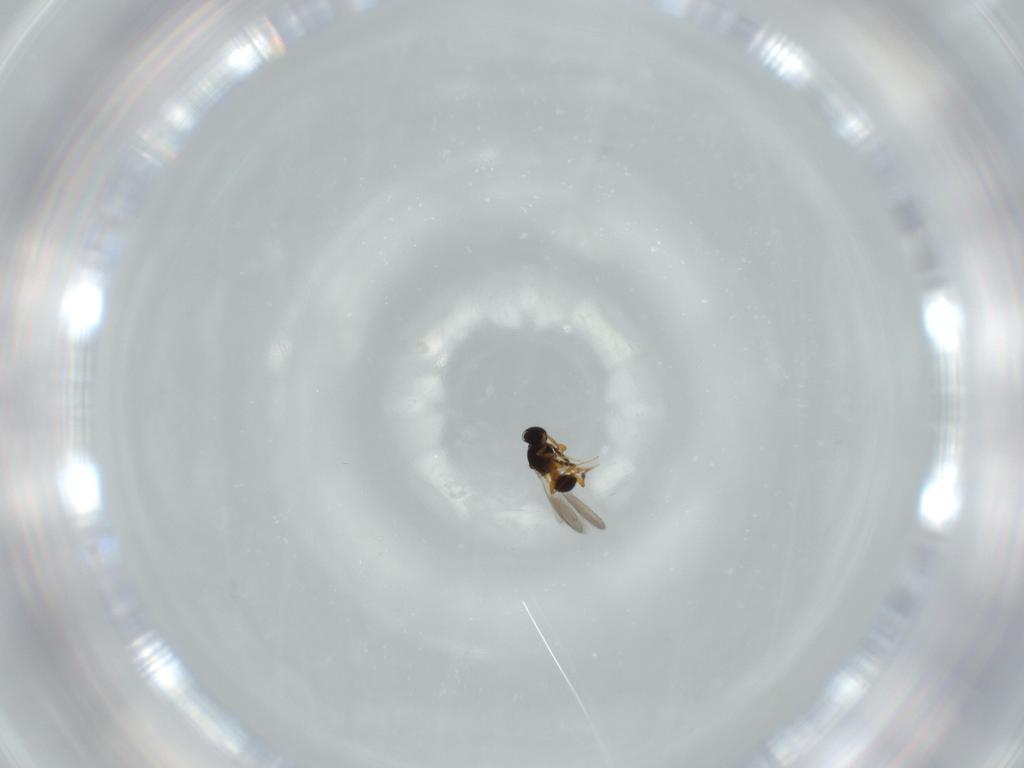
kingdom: Animalia
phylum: Arthropoda
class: Insecta
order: Hymenoptera
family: Platygastridae
